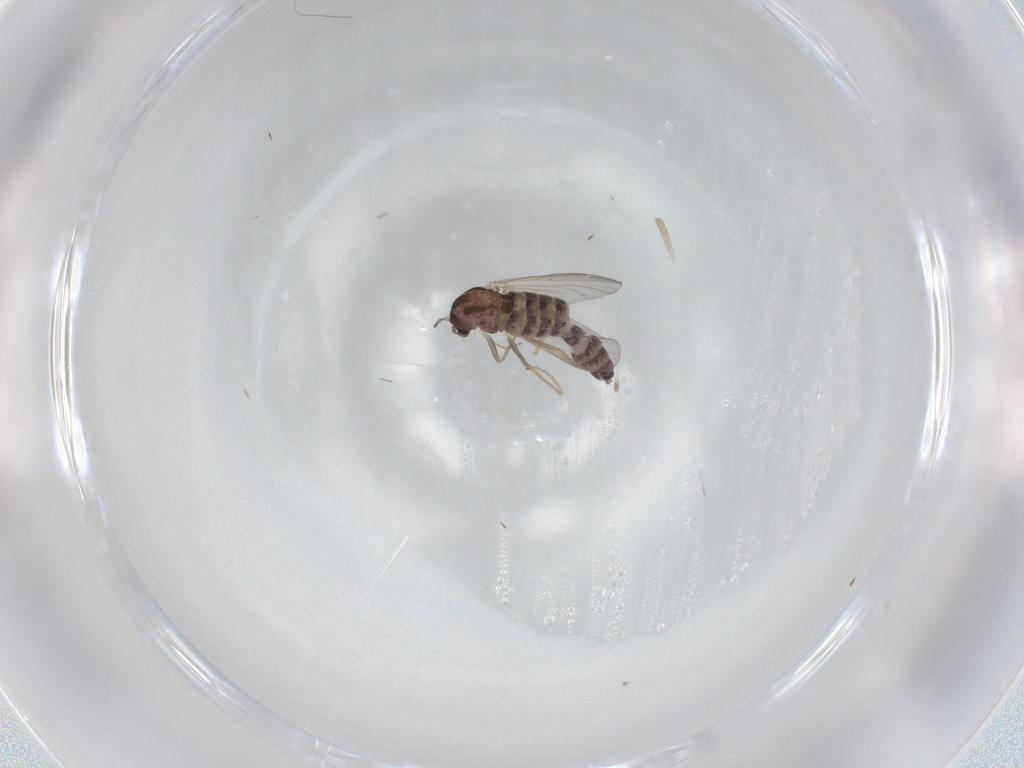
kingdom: Animalia
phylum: Arthropoda
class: Insecta
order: Diptera
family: Chironomidae
